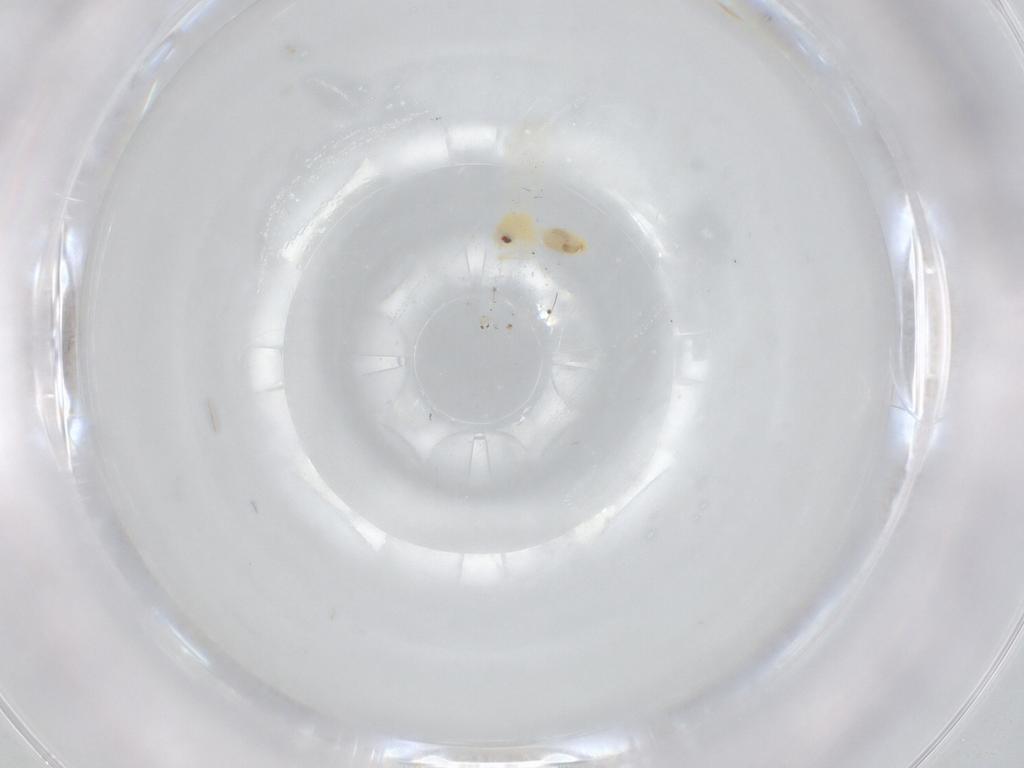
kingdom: Animalia
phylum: Arthropoda
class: Insecta
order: Hemiptera
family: Aleyrodidae
